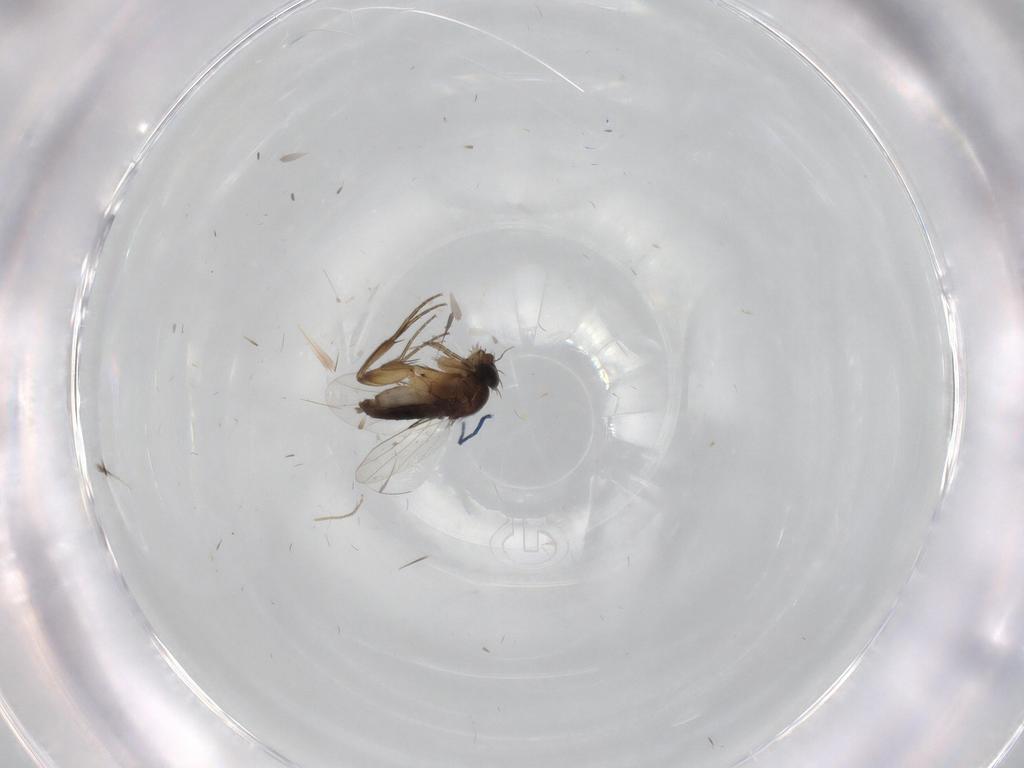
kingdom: Animalia
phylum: Arthropoda
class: Insecta
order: Diptera
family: Phoridae
